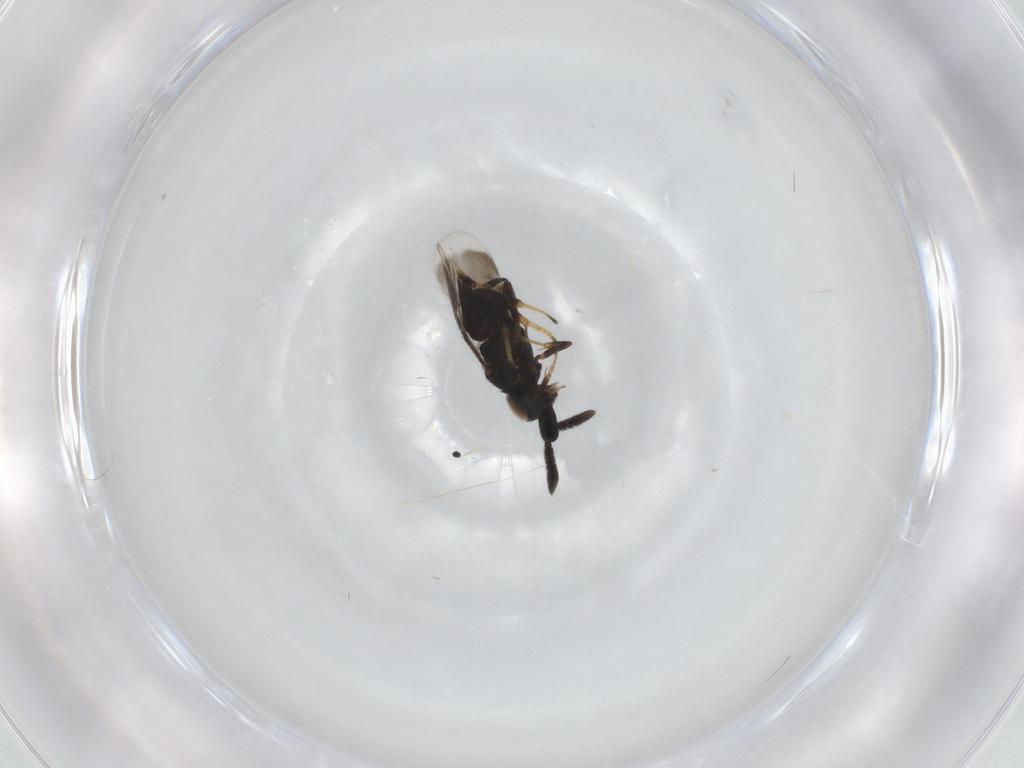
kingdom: Animalia
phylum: Arthropoda
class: Insecta
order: Hymenoptera
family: Encyrtidae
